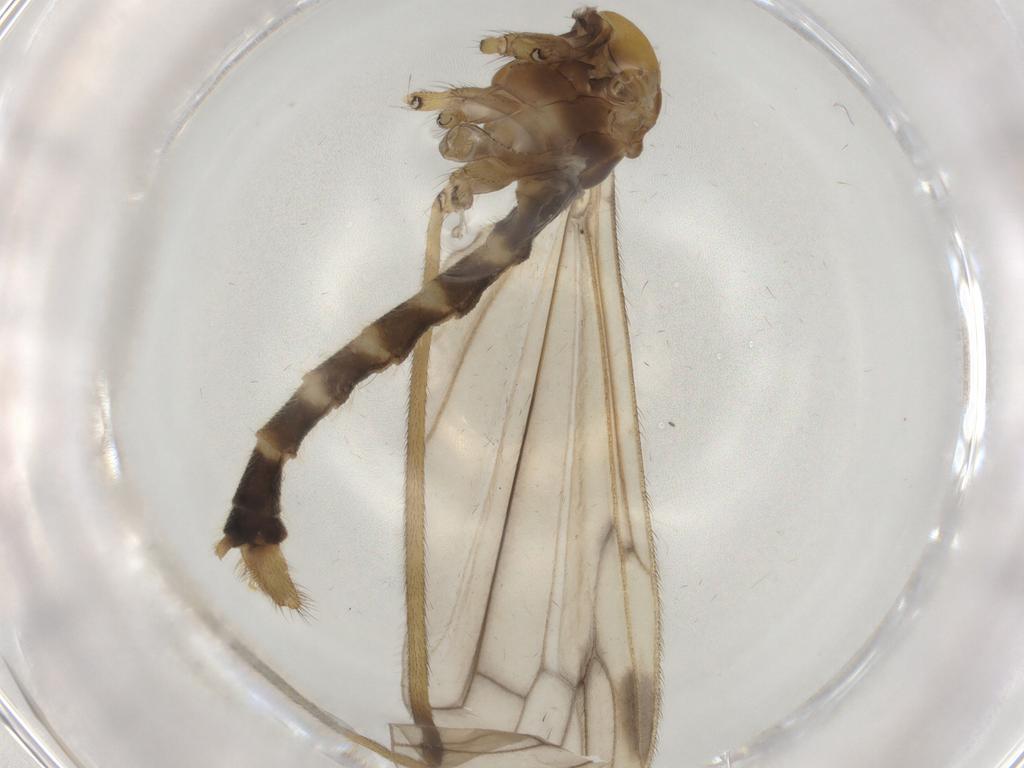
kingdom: Animalia
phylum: Arthropoda
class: Insecta
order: Diptera
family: Limoniidae
